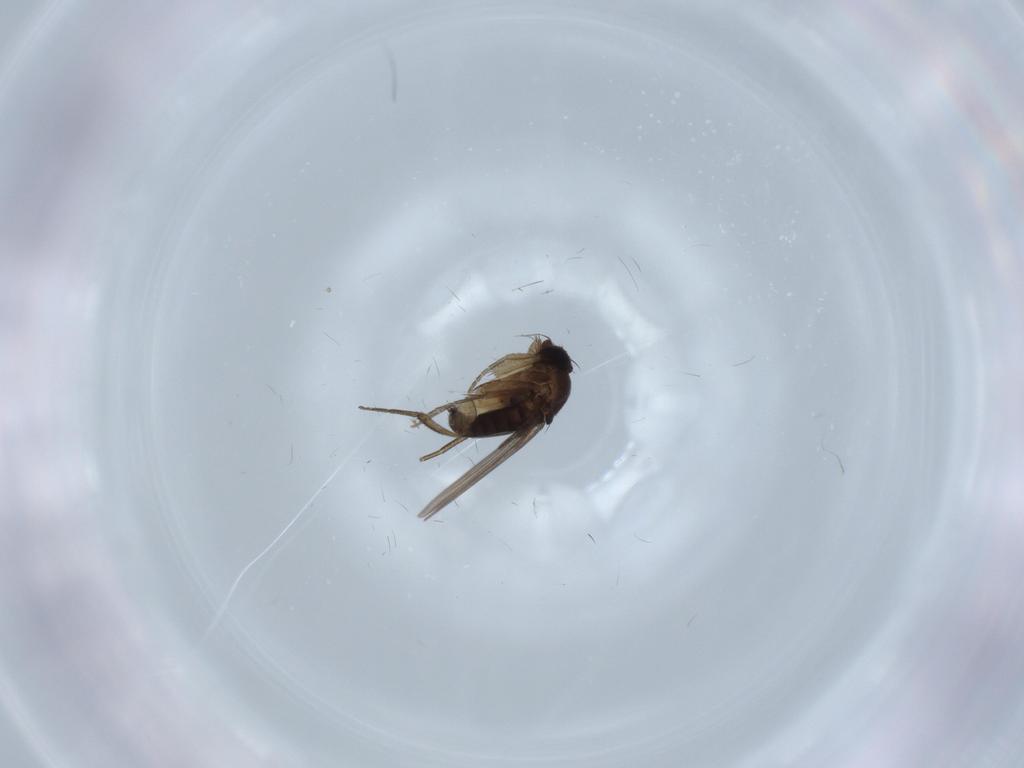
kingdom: Animalia
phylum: Arthropoda
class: Insecta
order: Diptera
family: Phoridae
